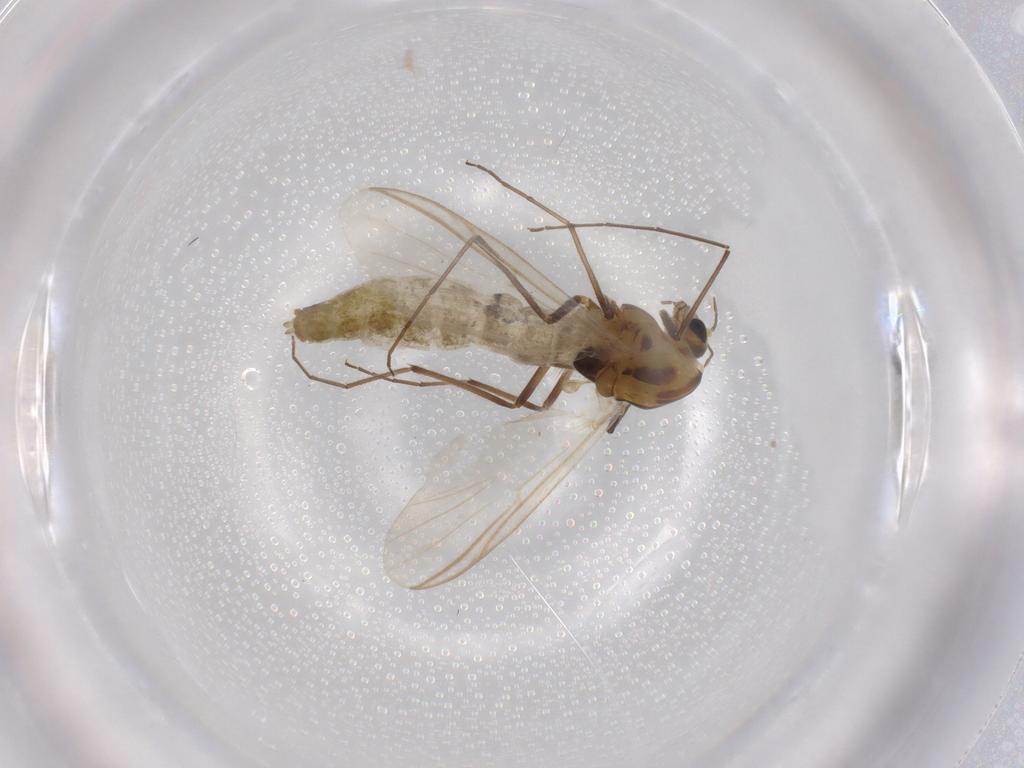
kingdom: Animalia
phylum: Arthropoda
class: Insecta
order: Diptera
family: Chironomidae
